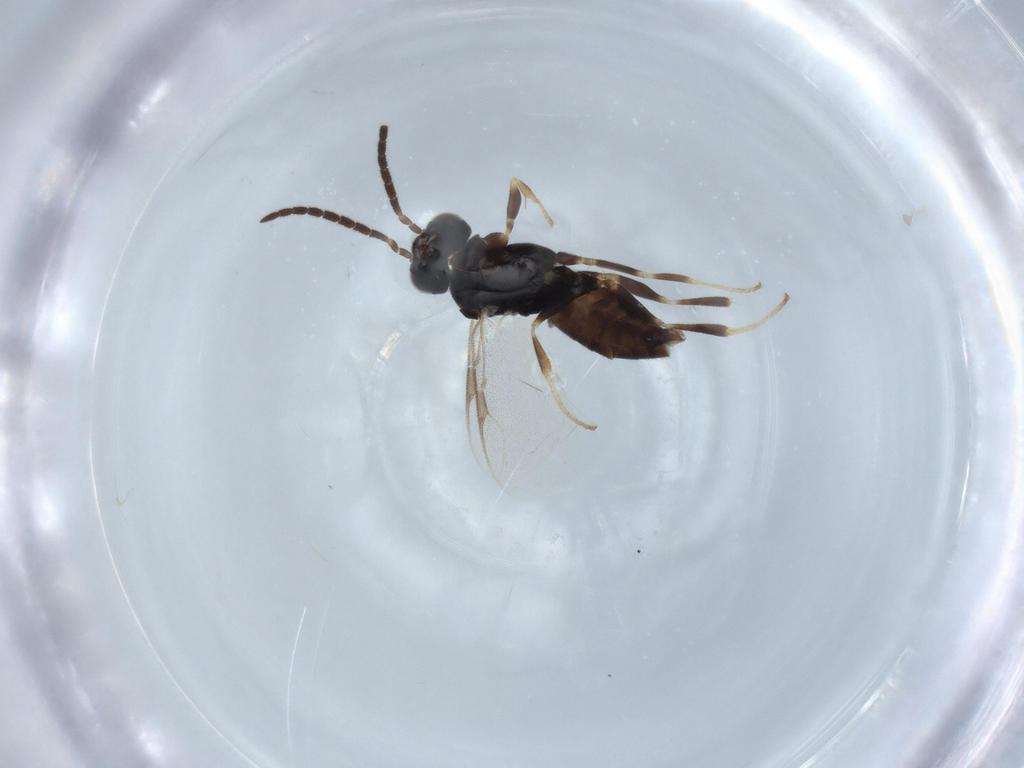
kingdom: Animalia
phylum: Arthropoda
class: Insecta
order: Hymenoptera
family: Dryinidae
